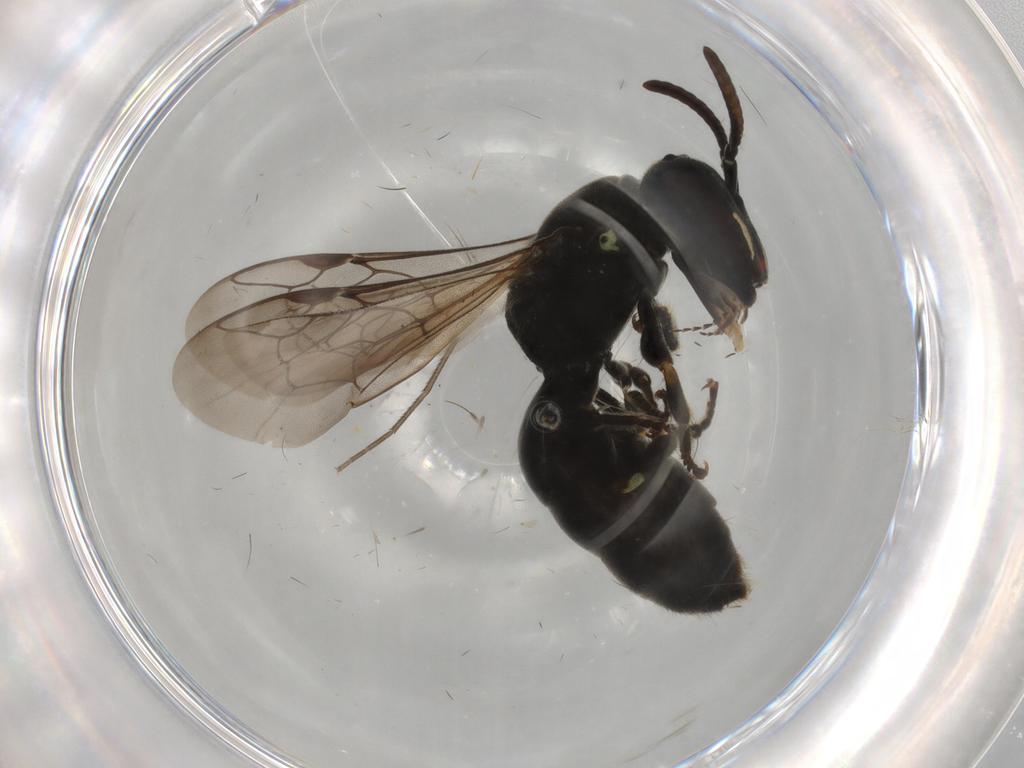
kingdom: Animalia
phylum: Arthropoda
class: Insecta
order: Hymenoptera
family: Colletidae
